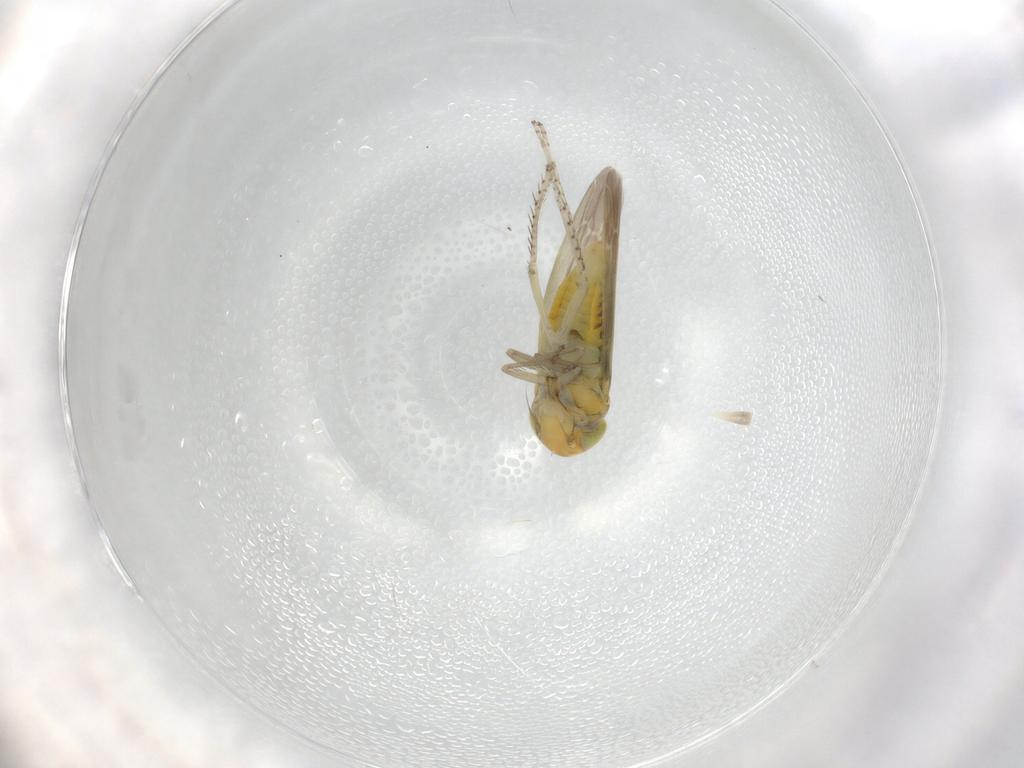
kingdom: Animalia
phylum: Arthropoda
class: Insecta
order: Hemiptera
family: Cicadellidae
